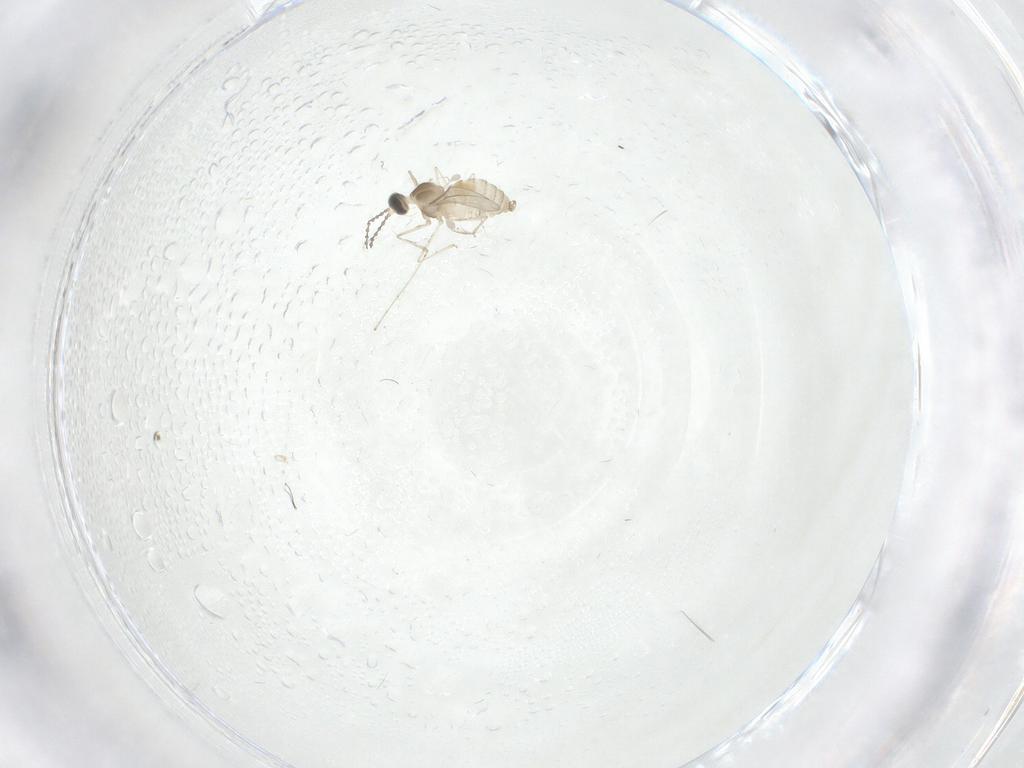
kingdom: Animalia
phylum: Arthropoda
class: Insecta
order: Diptera
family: Cecidomyiidae
